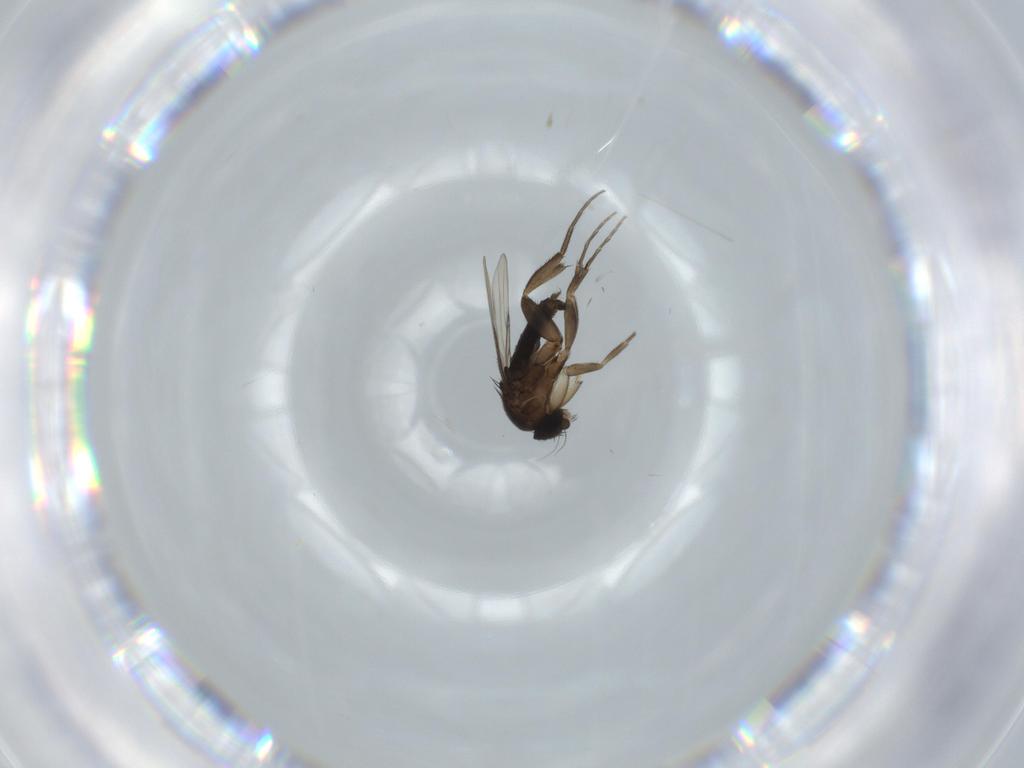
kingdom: Animalia
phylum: Arthropoda
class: Insecta
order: Diptera
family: Phoridae
